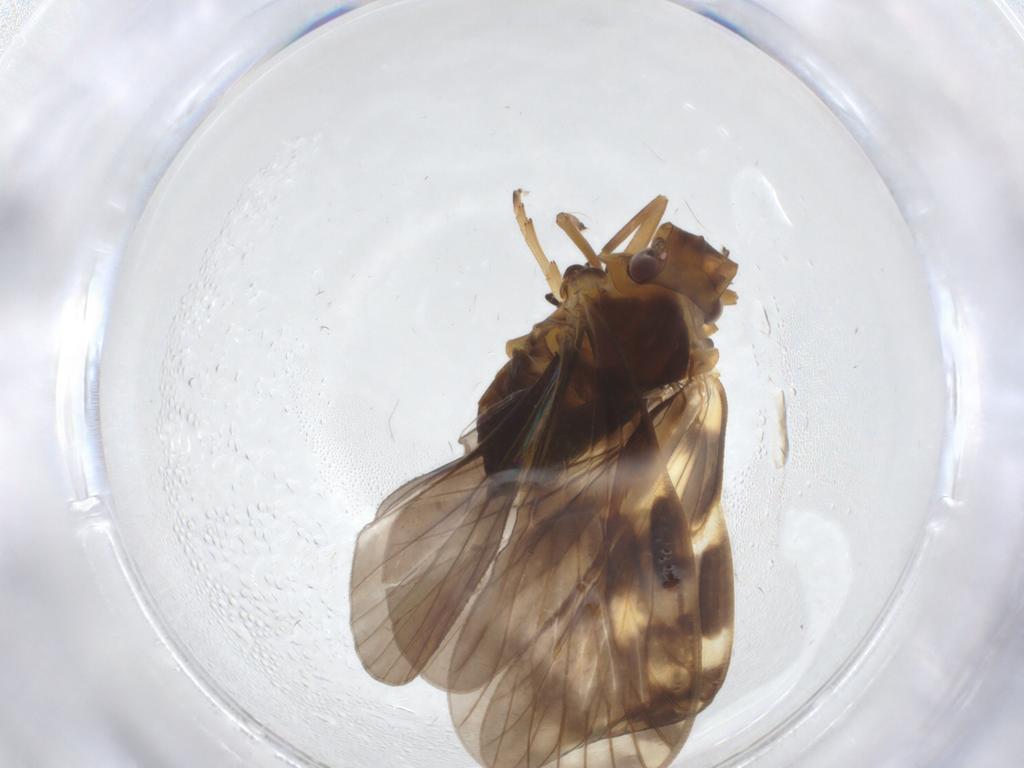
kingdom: Animalia
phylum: Arthropoda
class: Insecta
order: Hemiptera
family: Cixiidae
